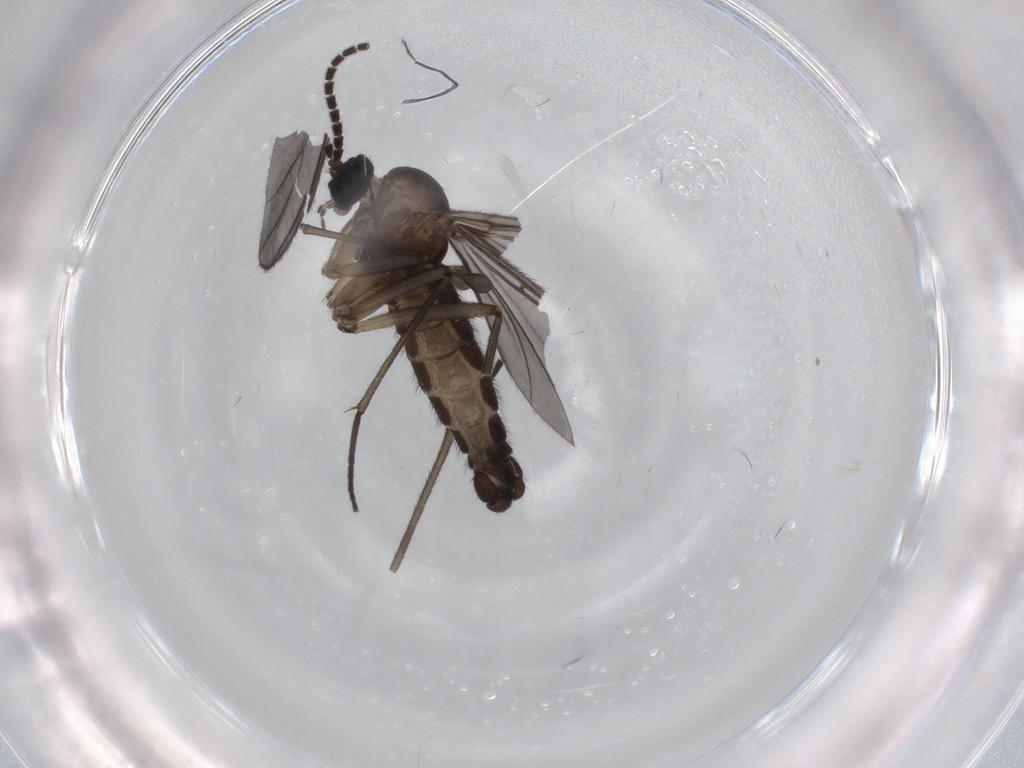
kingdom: Animalia
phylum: Arthropoda
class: Insecta
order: Diptera
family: Sciaridae
